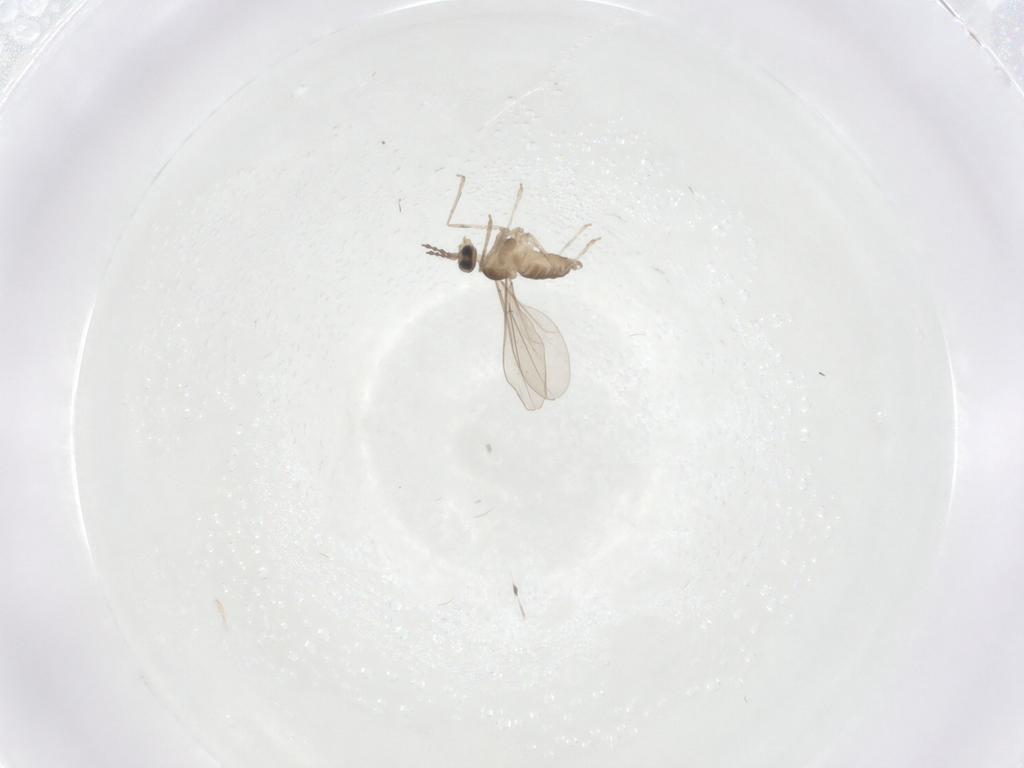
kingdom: Animalia
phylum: Arthropoda
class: Insecta
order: Diptera
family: Cecidomyiidae
